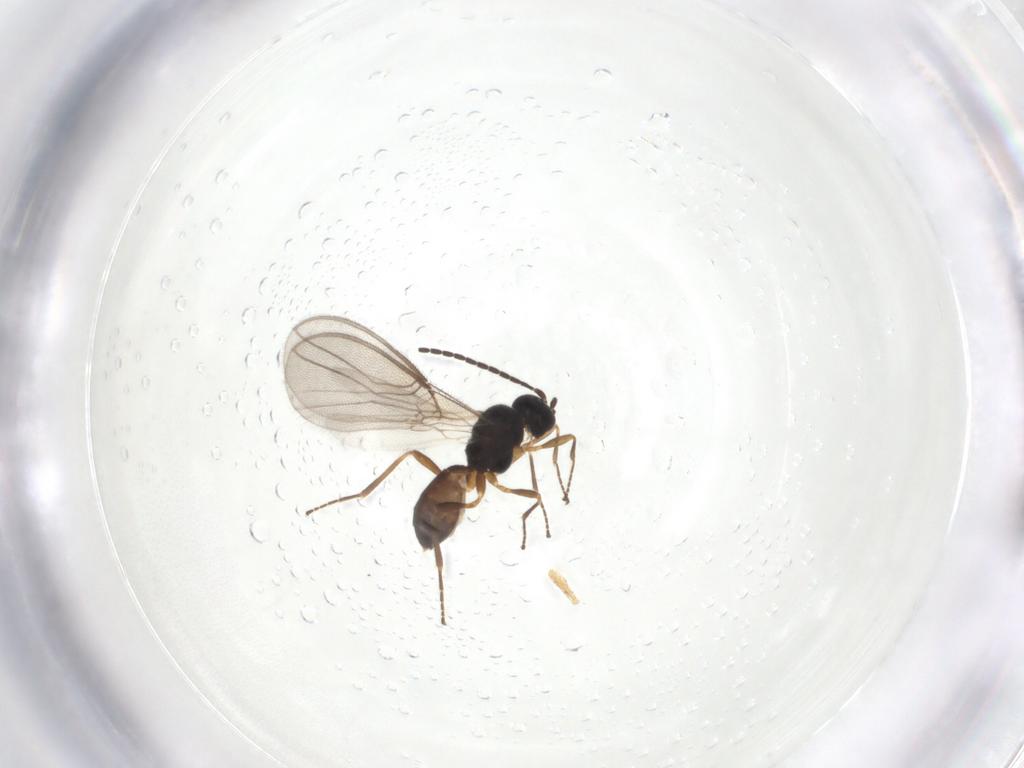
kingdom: Animalia
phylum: Arthropoda
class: Insecta
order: Hymenoptera
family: Braconidae
